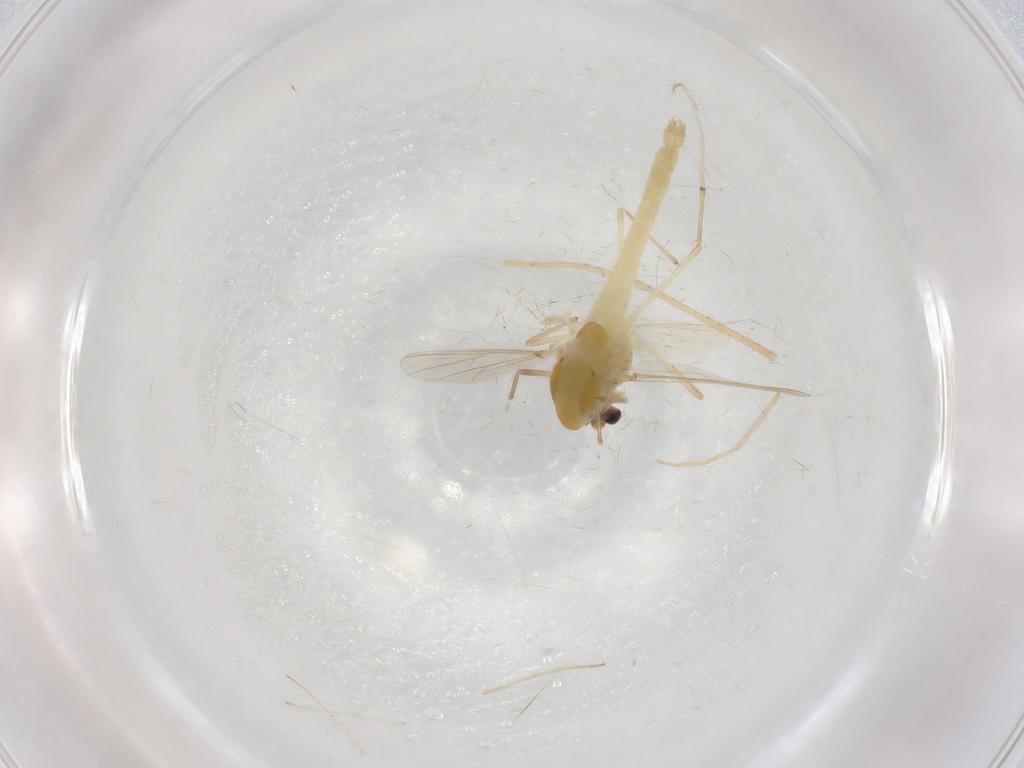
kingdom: Animalia
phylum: Arthropoda
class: Insecta
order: Diptera
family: Chironomidae
